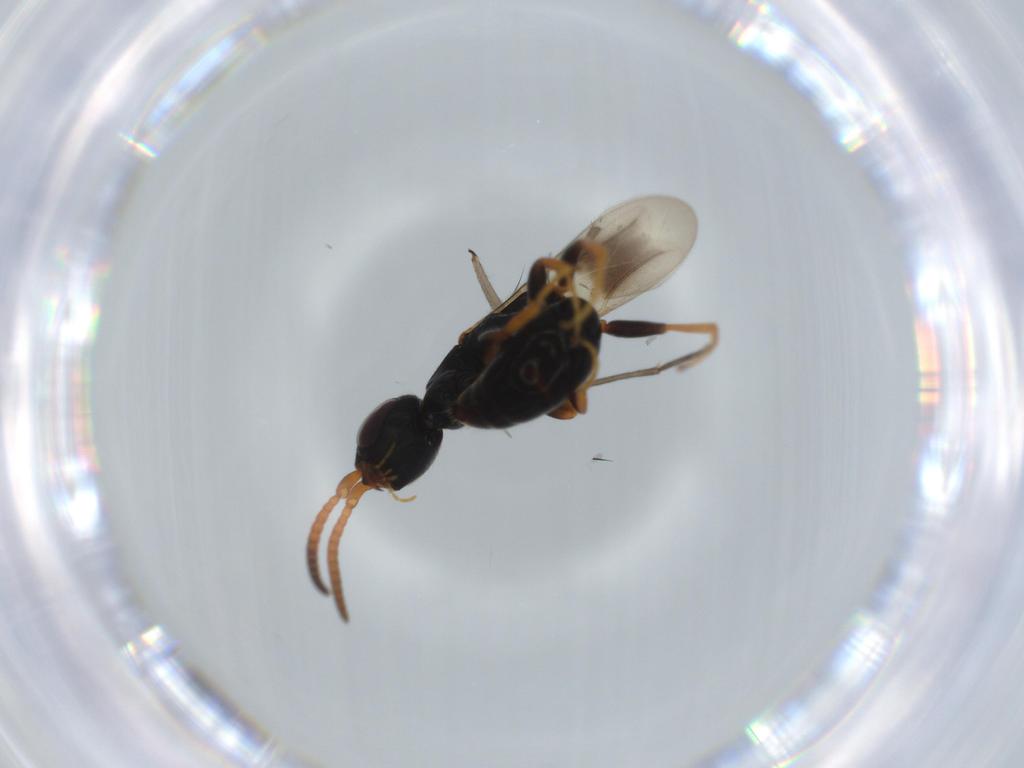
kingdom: Animalia
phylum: Arthropoda
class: Insecta
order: Hymenoptera
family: Scelionidae
